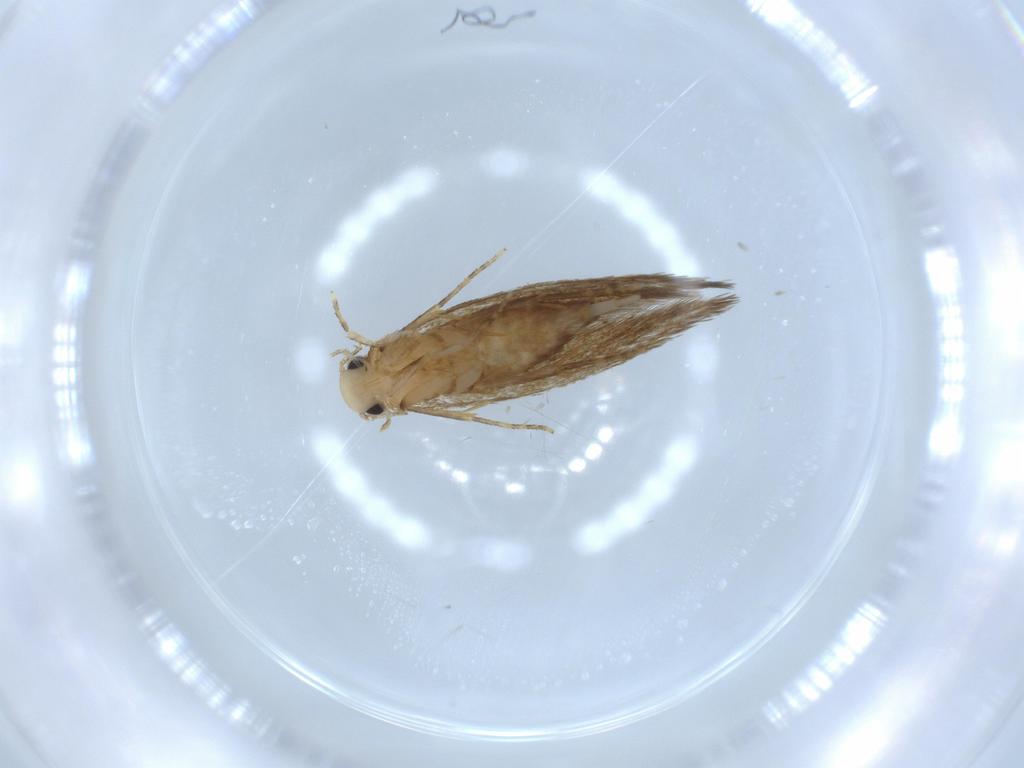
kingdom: Animalia
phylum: Arthropoda
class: Insecta
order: Lepidoptera
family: Tineidae
